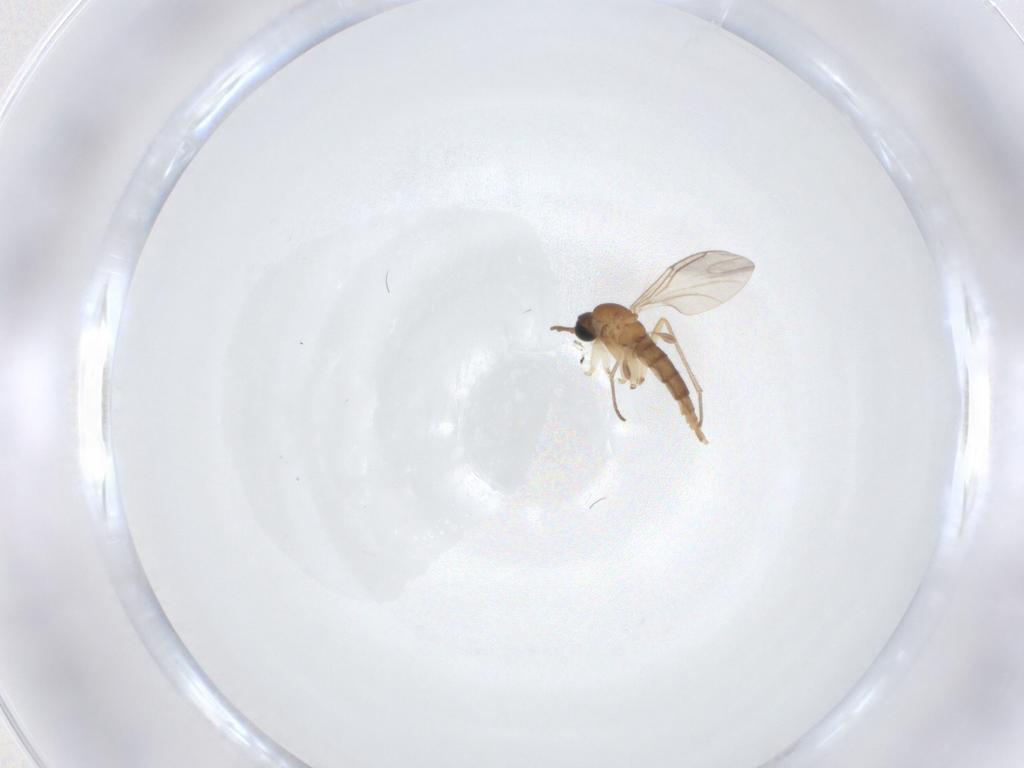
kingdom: Animalia
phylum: Arthropoda
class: Insecta
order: Diptera
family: Sciaridae
